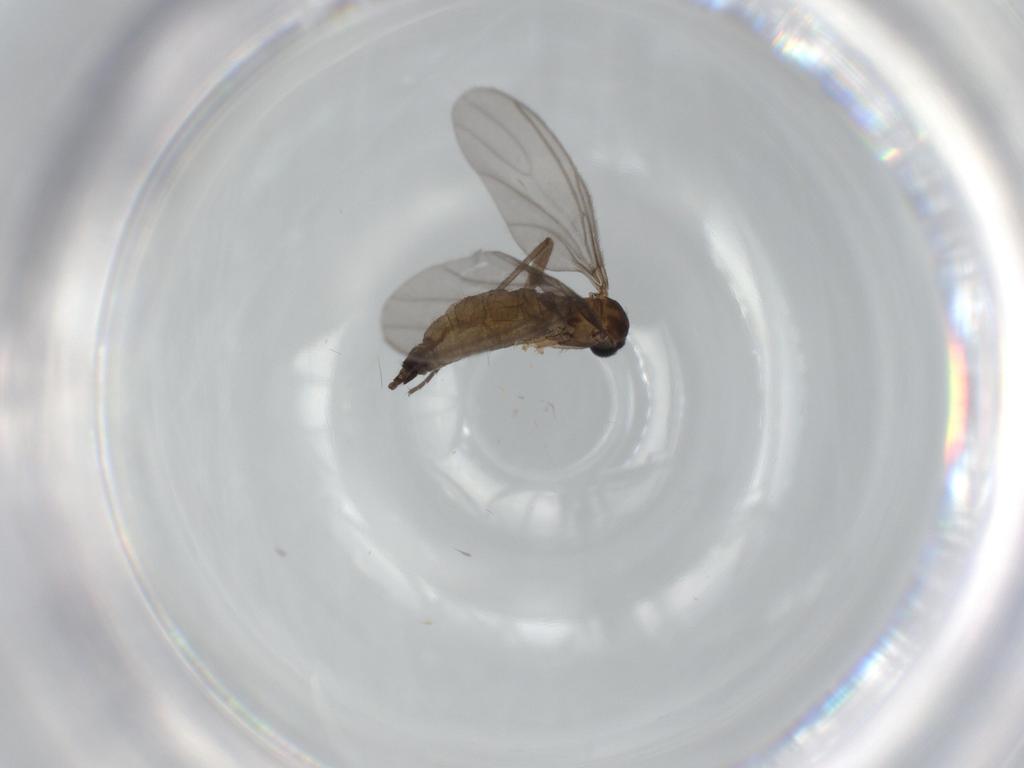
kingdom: Animalia
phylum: Arthropoda
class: Insecta
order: Diptera
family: Sciaridae
